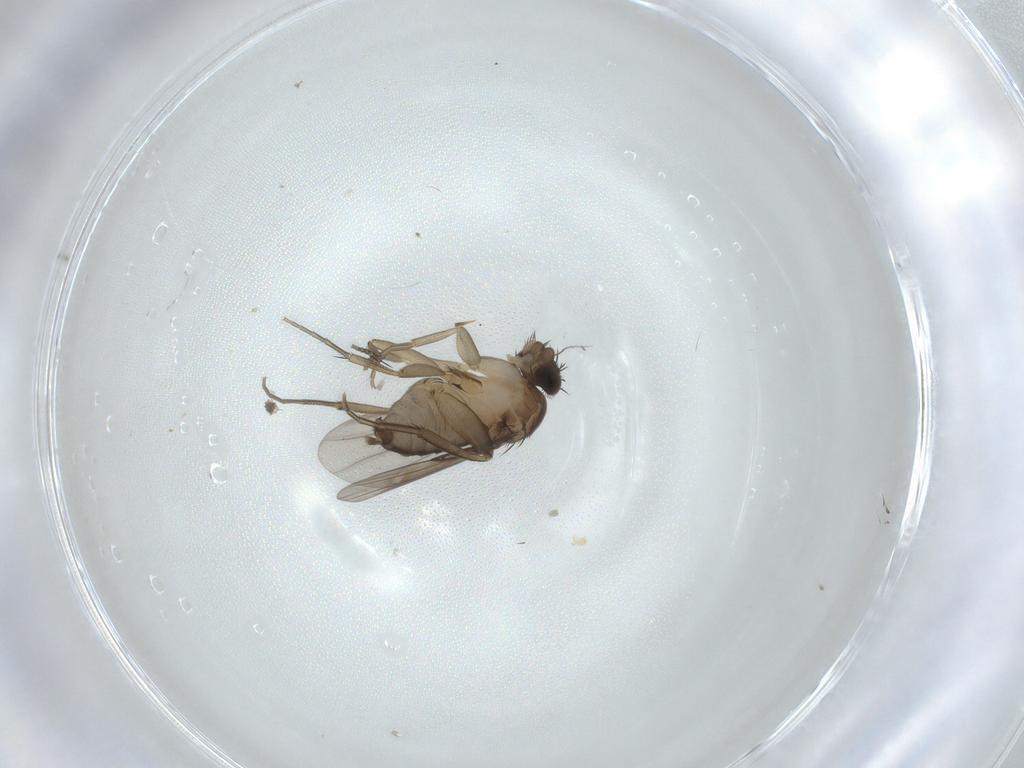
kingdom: Animalia
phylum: Arthropoda
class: Insecta
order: Diptera
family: Phoridae
